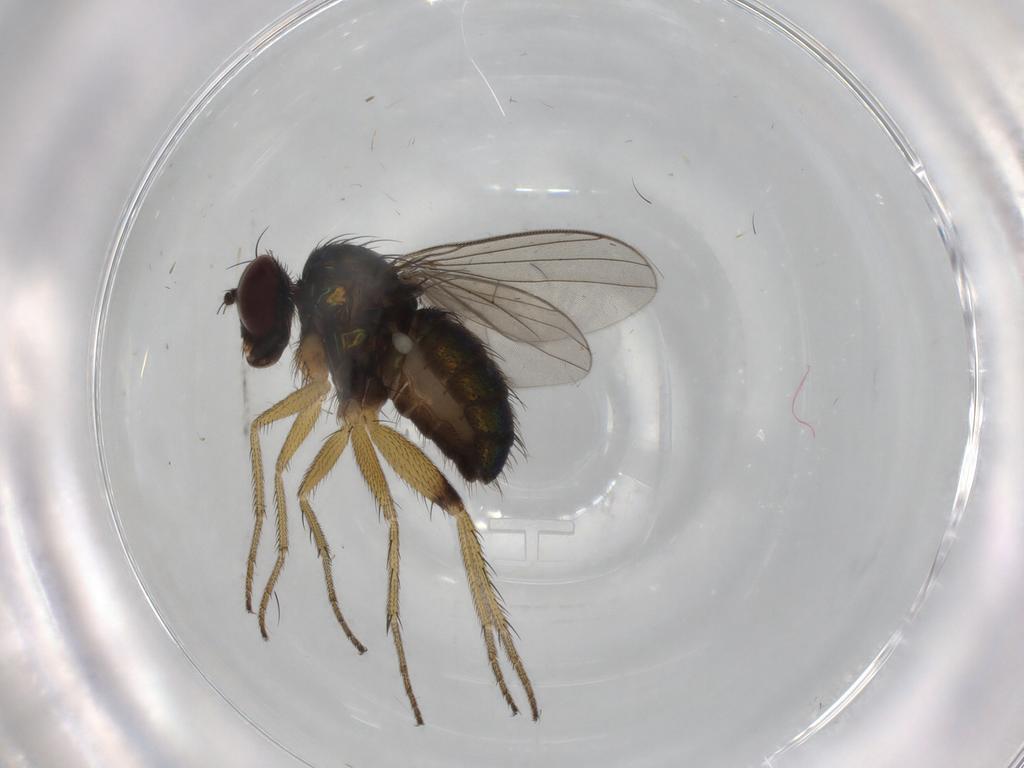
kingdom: Animalia
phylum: Arthropoda
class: Insecta
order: Diptera
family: Dolichopodidae
